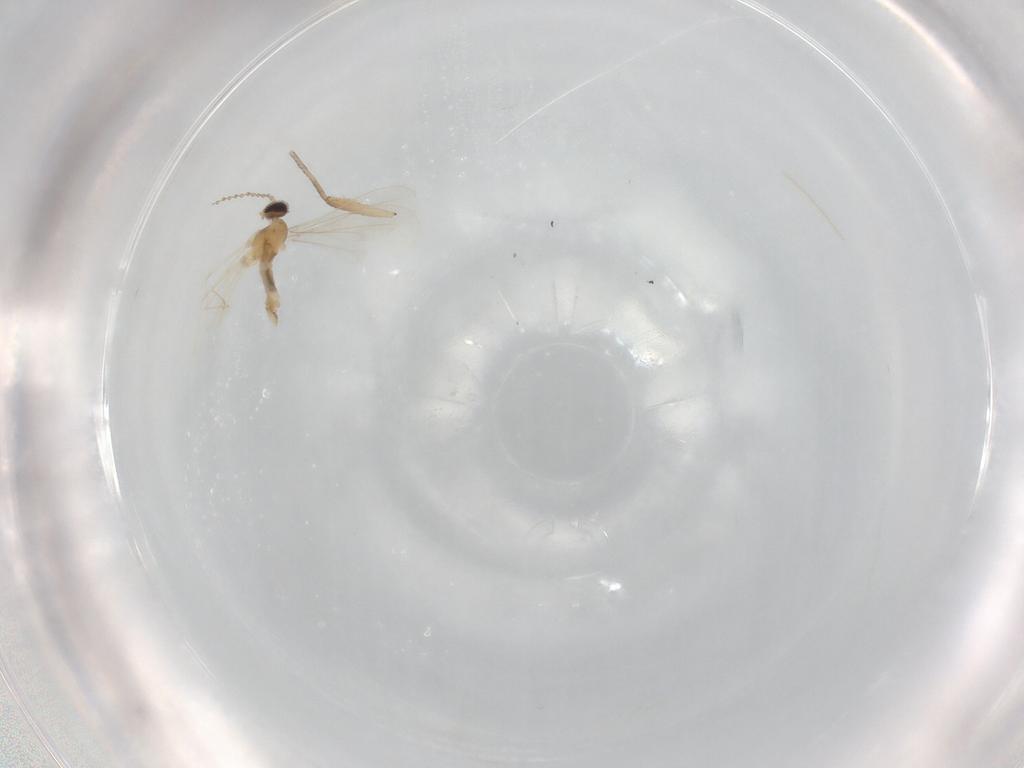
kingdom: Animalia
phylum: Arthropoda
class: Insecta
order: Diptera
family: Cecidomyiidae
